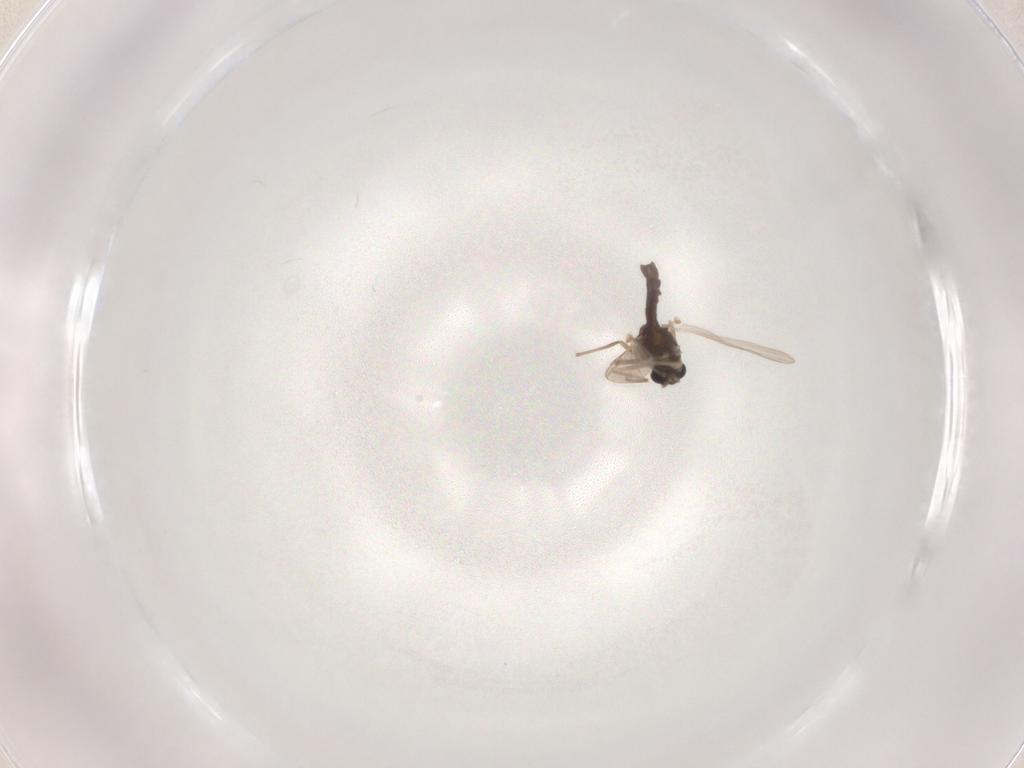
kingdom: Animalia
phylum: Arthropoda
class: Insecta
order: Diptera
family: Chironomidae
